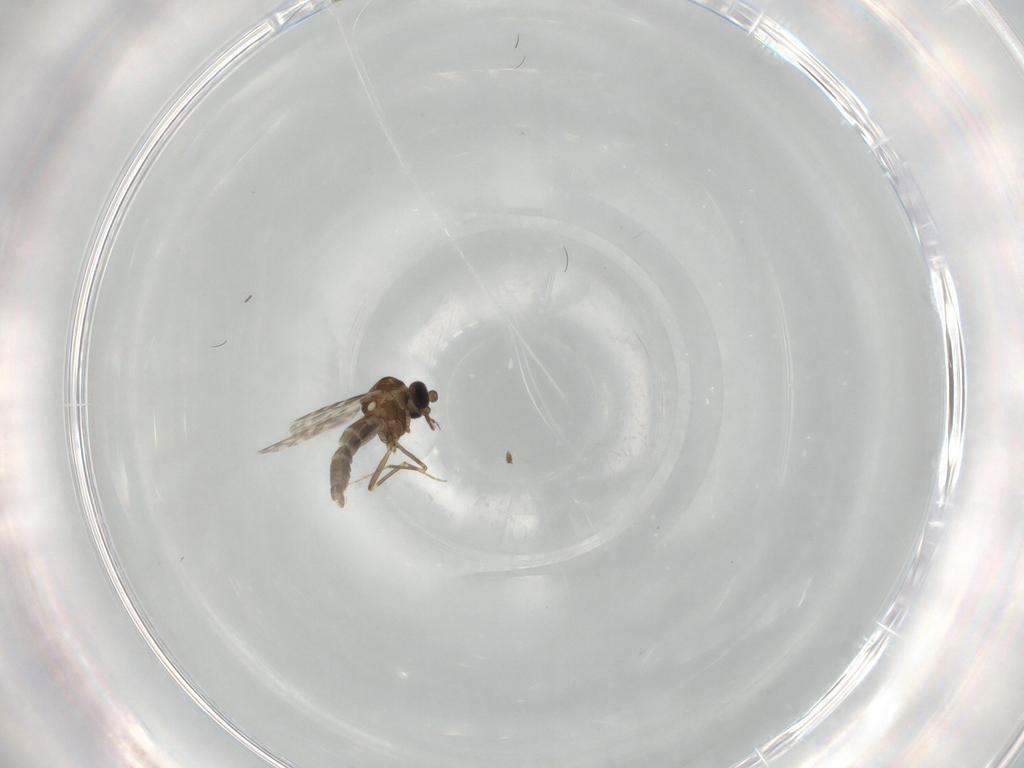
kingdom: Animalia
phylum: Arthropoda
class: Insecta
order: Diptera
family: Ceratopogonidae
